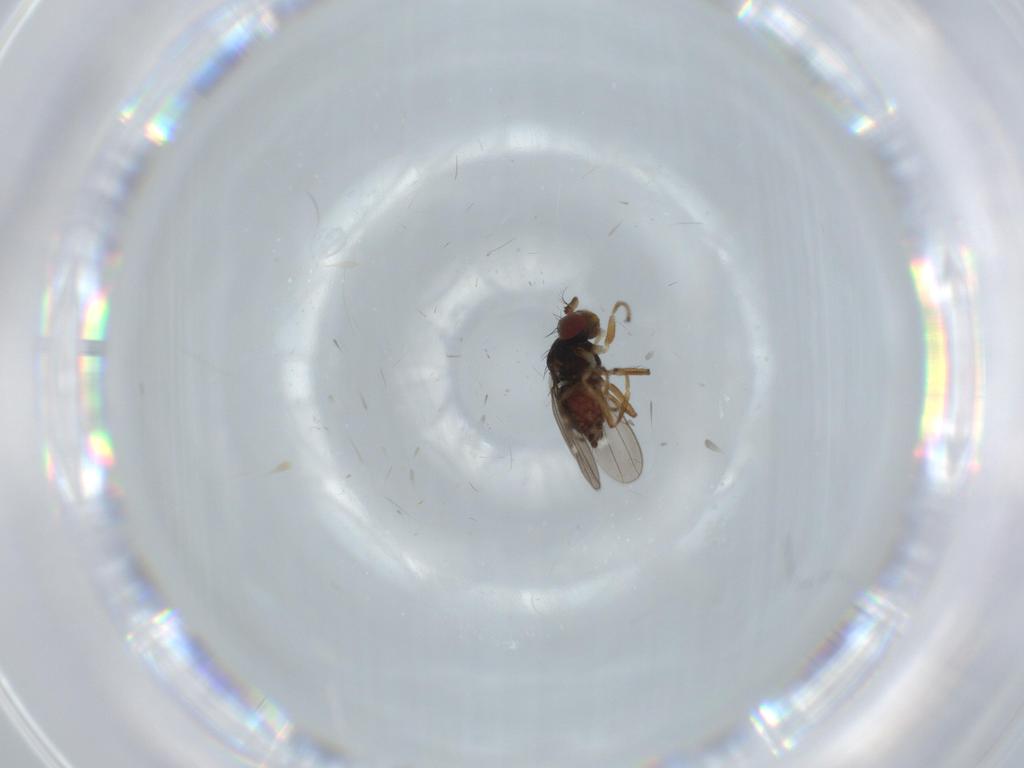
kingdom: Animalia
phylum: Arthropoda
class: Insecta
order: Diptera
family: Ephydridae
